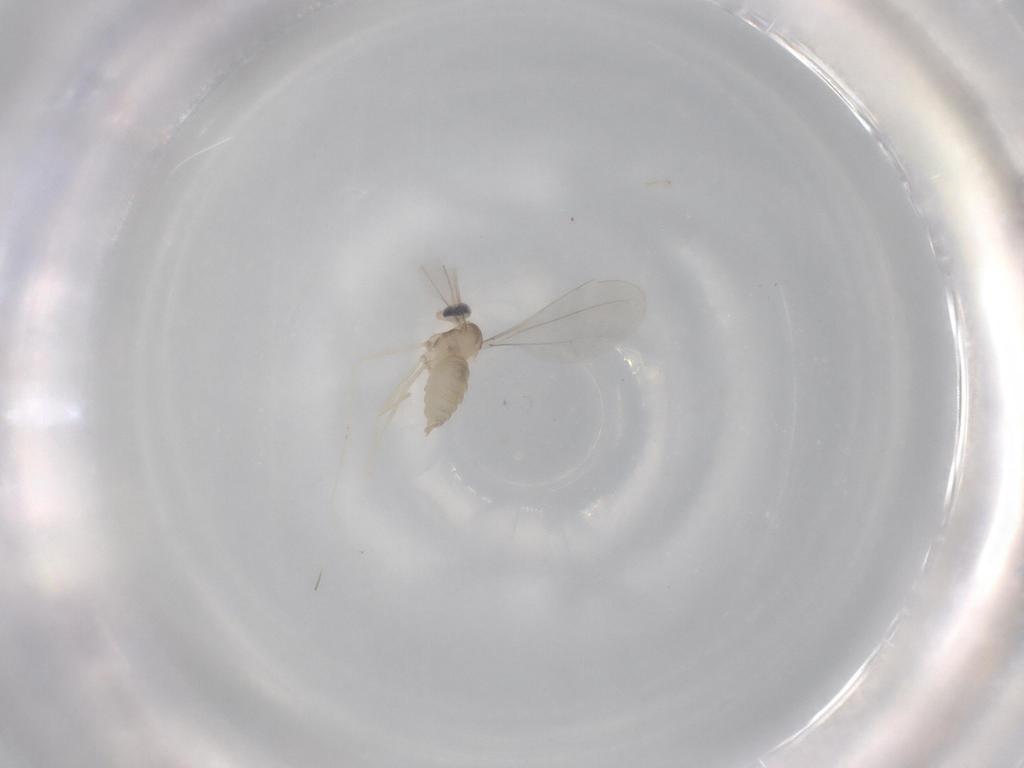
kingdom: Animalia
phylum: Arthropoda
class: Insecta
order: Diptera
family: Cecidomyiidae
